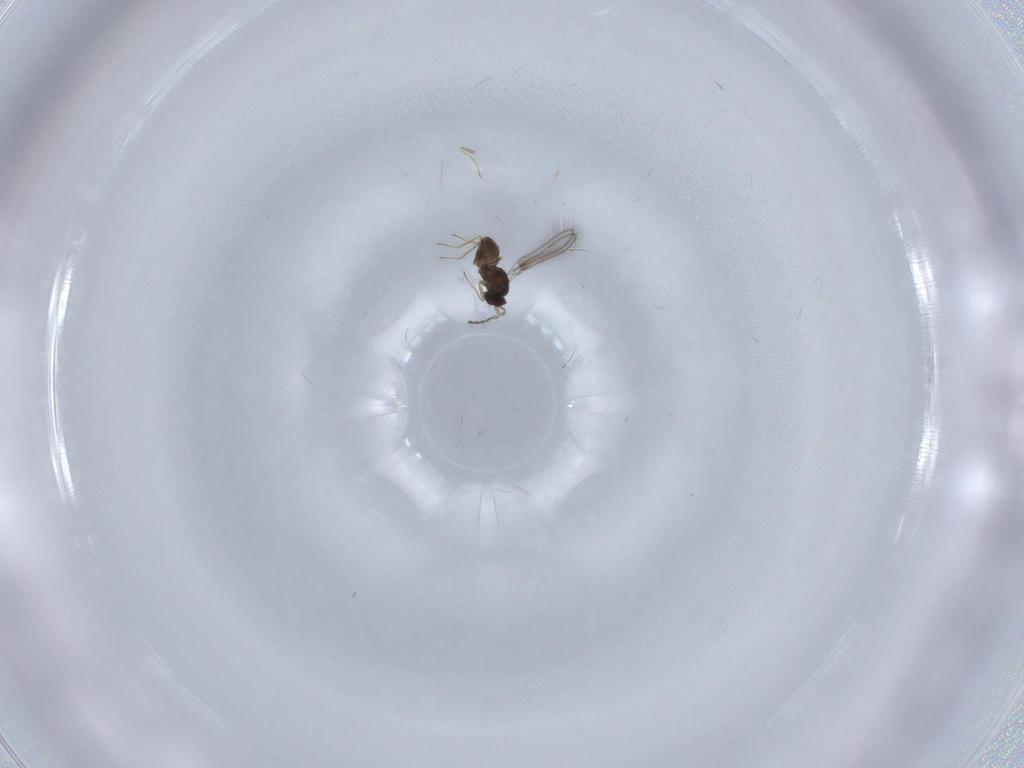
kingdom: Animalia
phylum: Arthropoda
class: Insecta
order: Hymenoptera
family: Mymaridae
